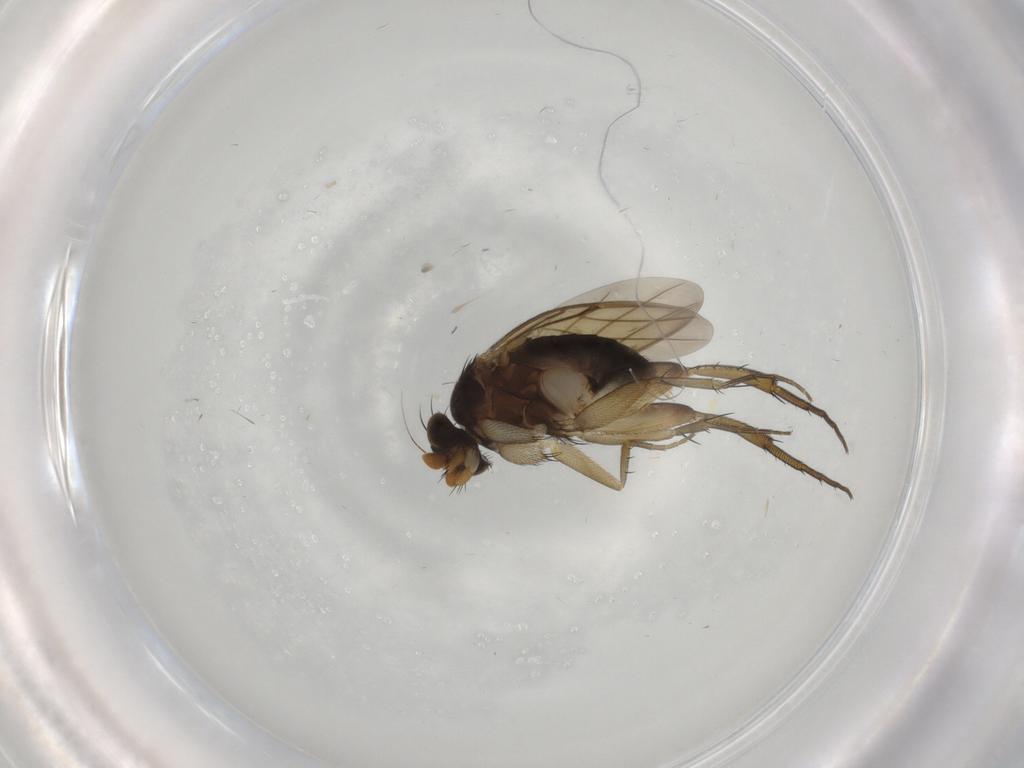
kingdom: Animalia
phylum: Arthropoda
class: Insecta
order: Diptera
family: Phoridae
